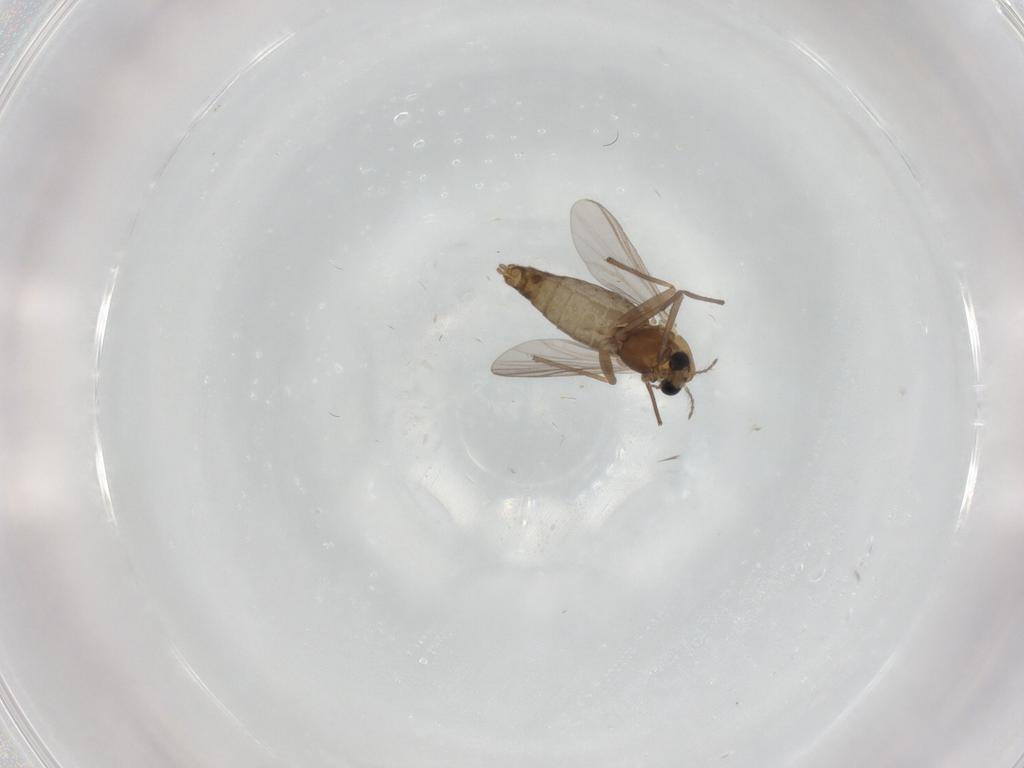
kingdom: Animalia
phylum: Arthropoda
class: Insecta
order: Diptera
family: Chironomidae
